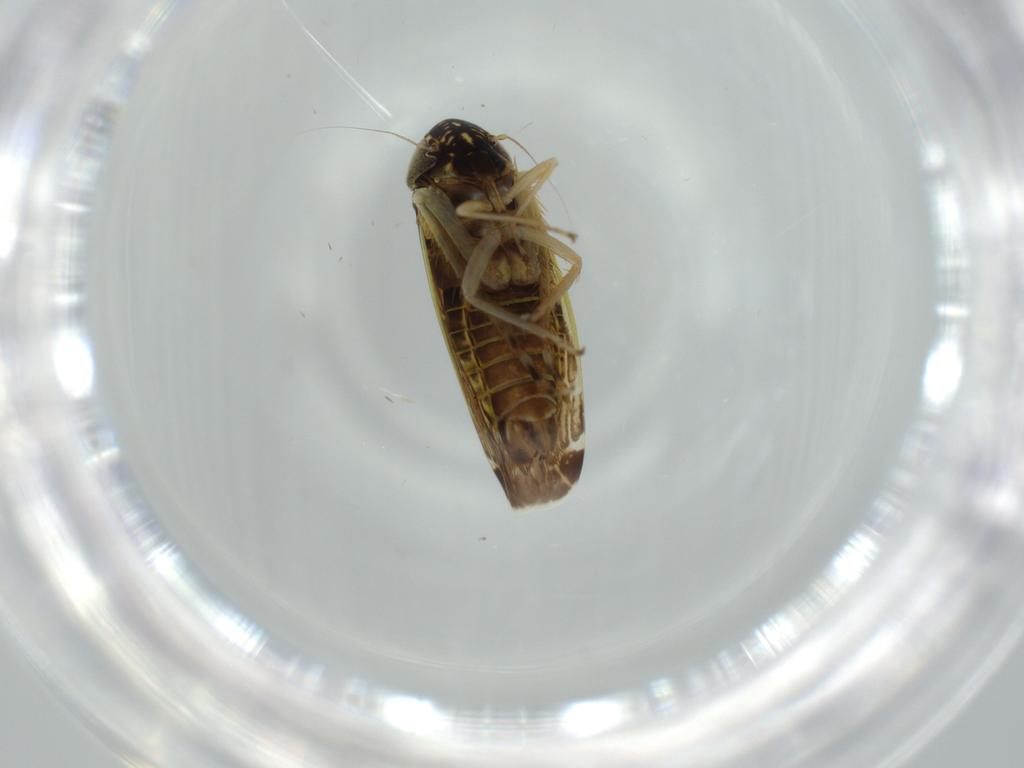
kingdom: Animalia
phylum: Arthropoda
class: Insecta
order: Hemiptera
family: Cicadellidae
